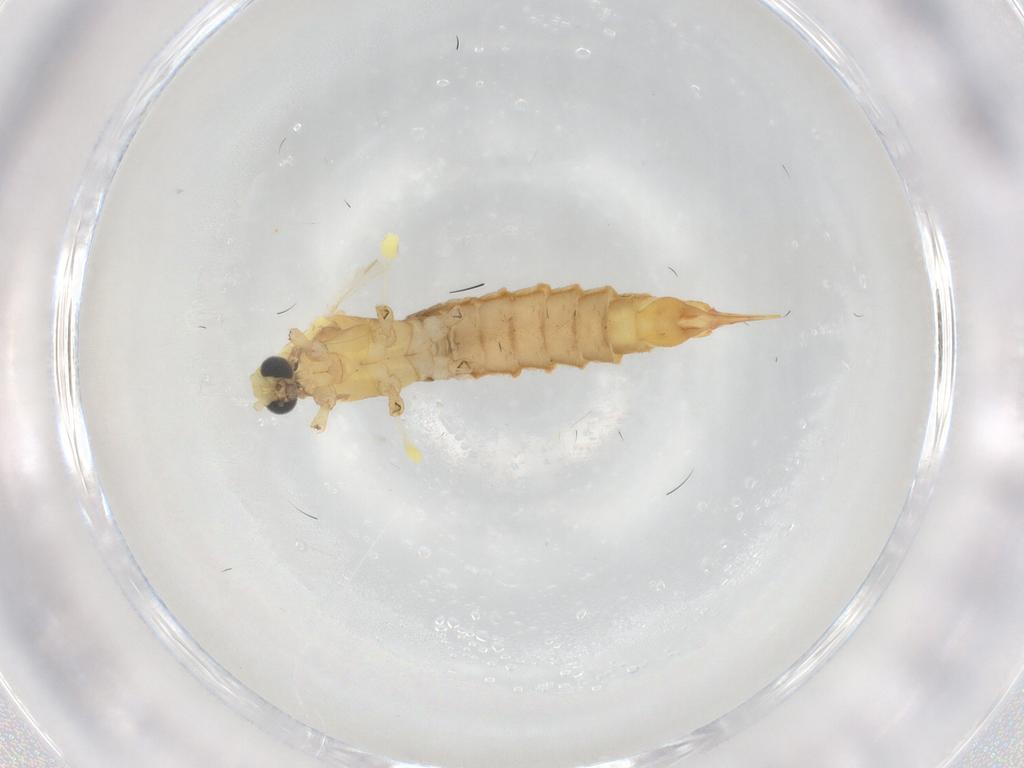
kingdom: Animalia
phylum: Arthropoda
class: Insecta
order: Diptera
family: Limoniidae
